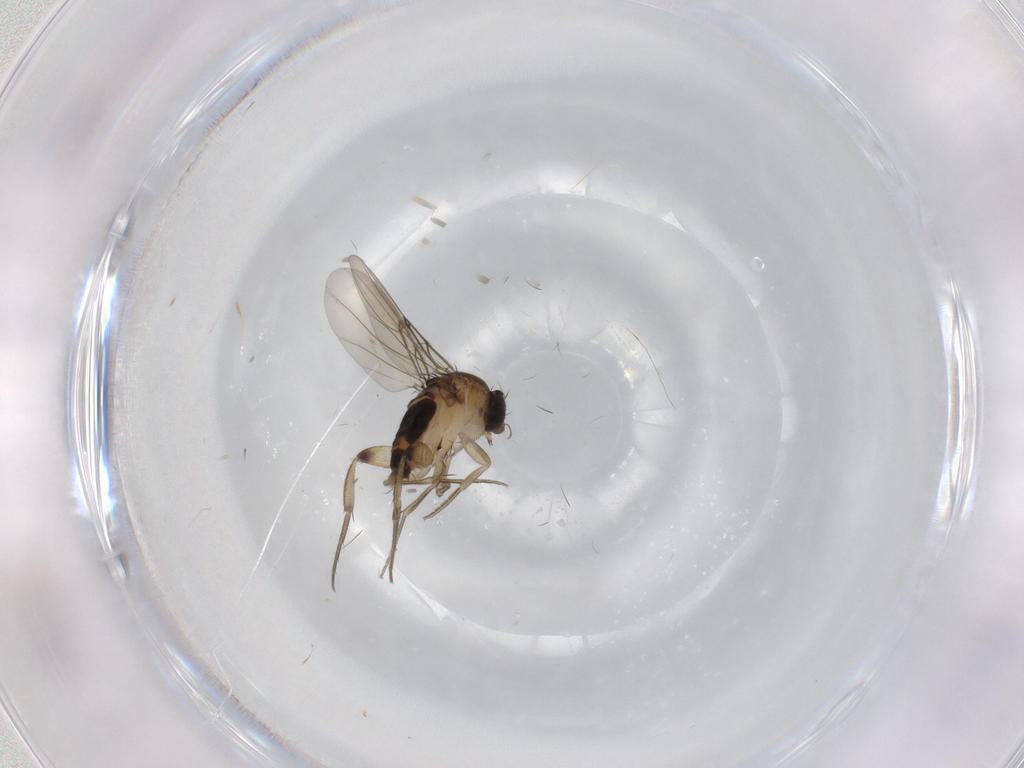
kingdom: Animalia
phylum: Arthropoda
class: Insecta
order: Diptera
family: Phoridae
